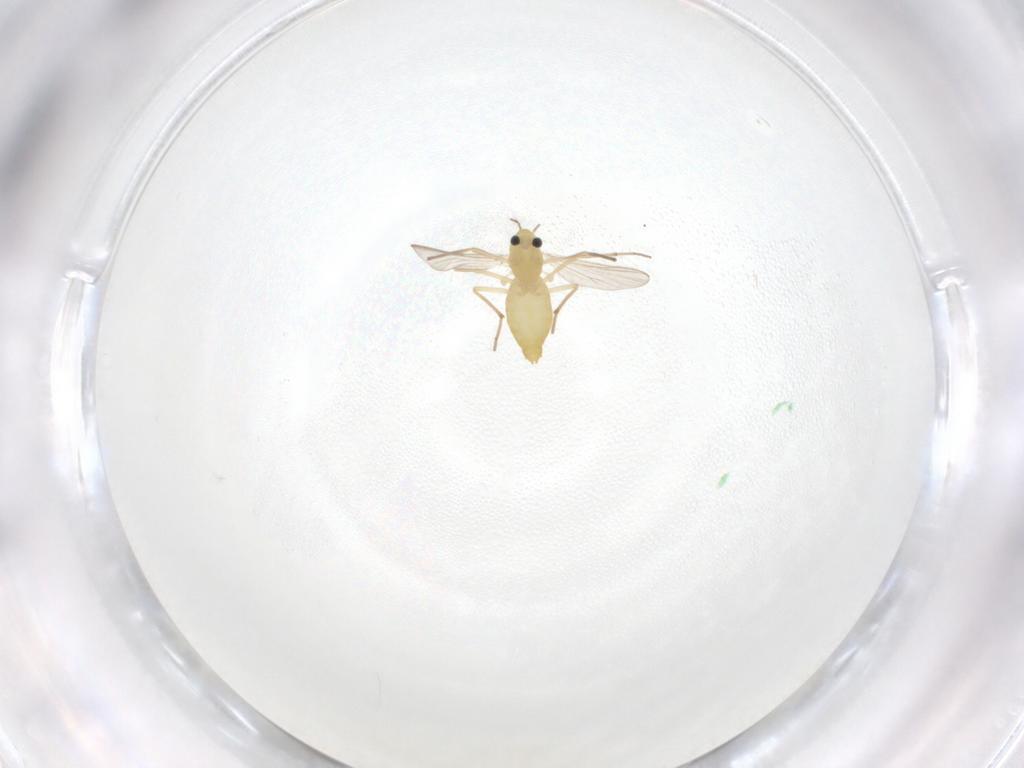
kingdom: Animalia
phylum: Arthropoda
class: Insecta
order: Diptera
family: Chironomidae
